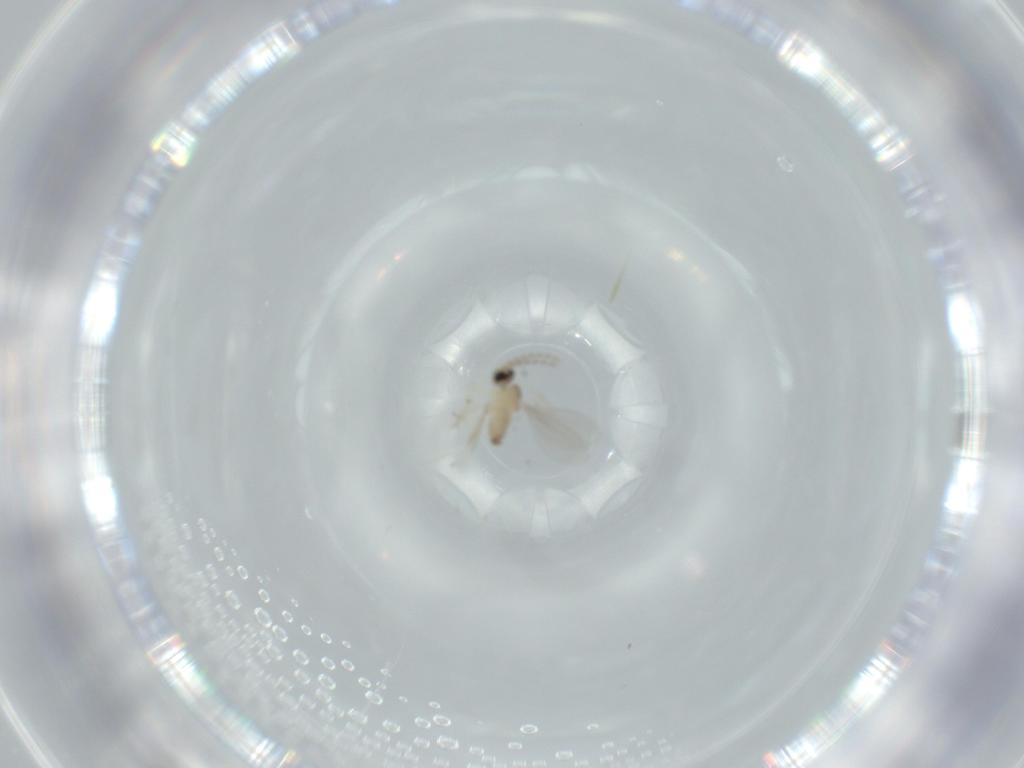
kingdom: Animalia
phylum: Arthropoda
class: Insecta
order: Diptera
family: Cecidomyiidae
